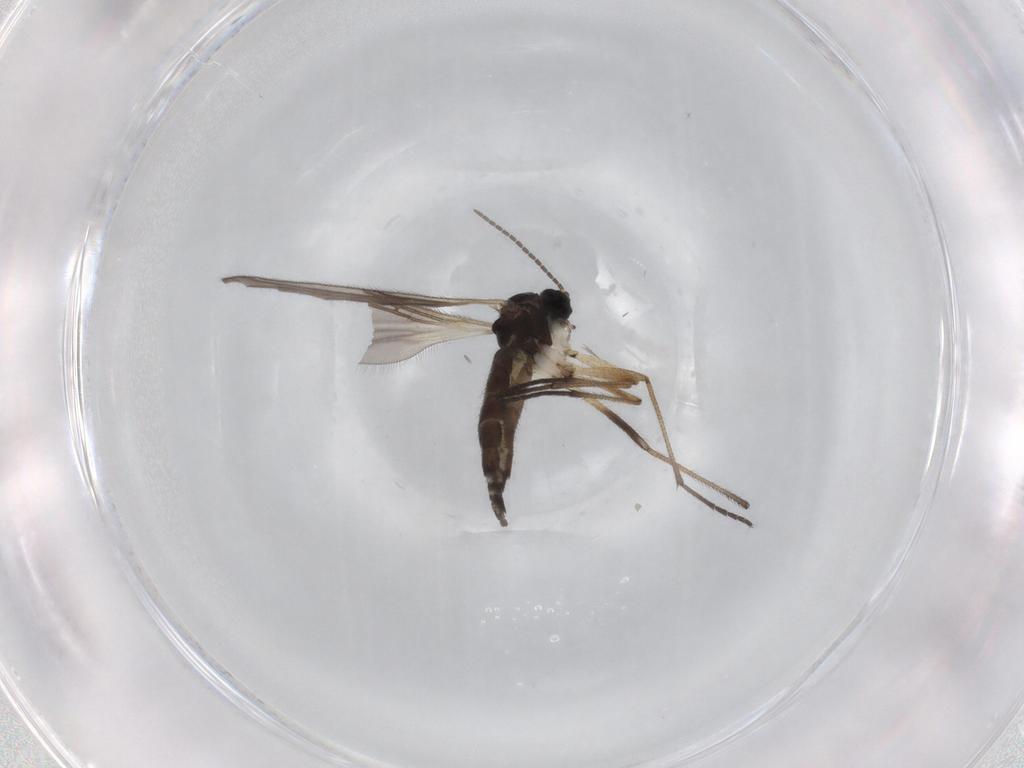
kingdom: Animalia
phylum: Arthropoda
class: Insecta
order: Diptera
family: Sciaridae
